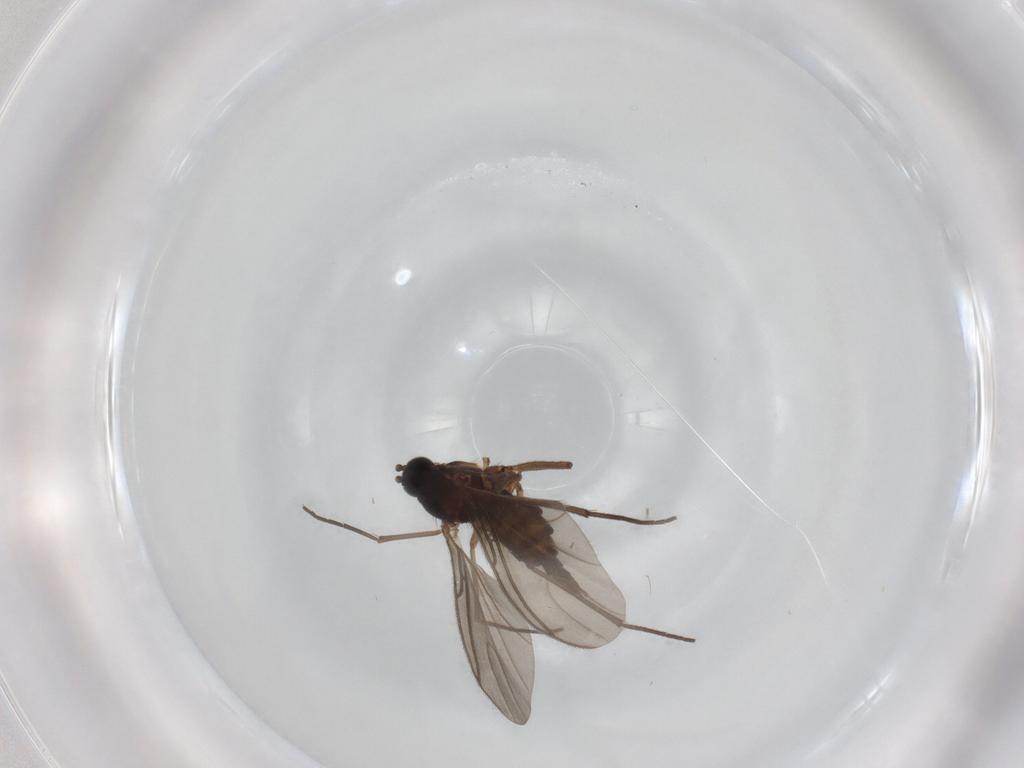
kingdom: Animalia
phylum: Arthropoda
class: Insecta
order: Diptera
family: Sciaridae
